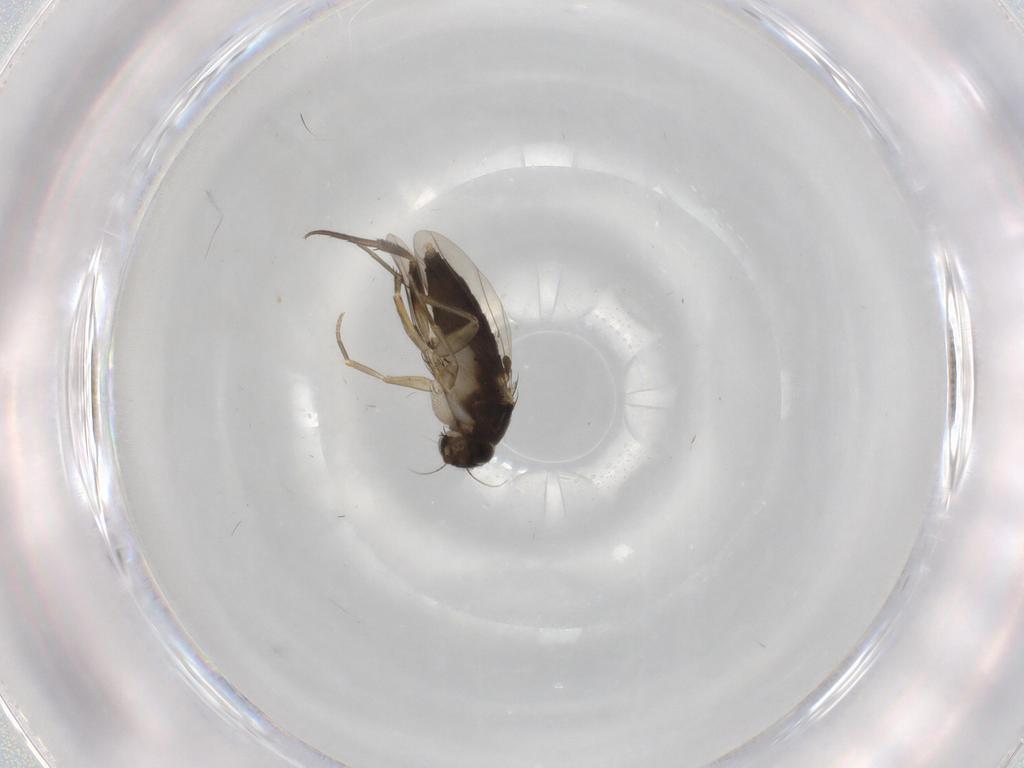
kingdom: Animalia
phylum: Arthropoda
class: Insecta
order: Diptera
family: Phoridae
